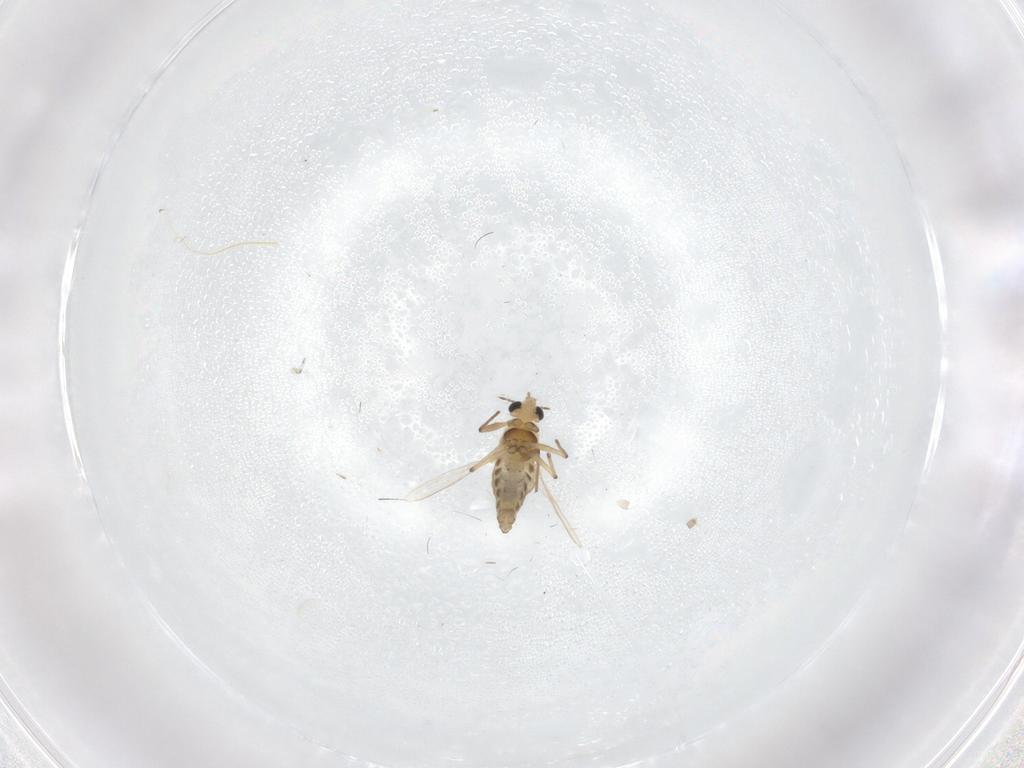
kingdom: Animalia
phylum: Arthropoda
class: Insecta
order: Diptera
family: Chironomidae
